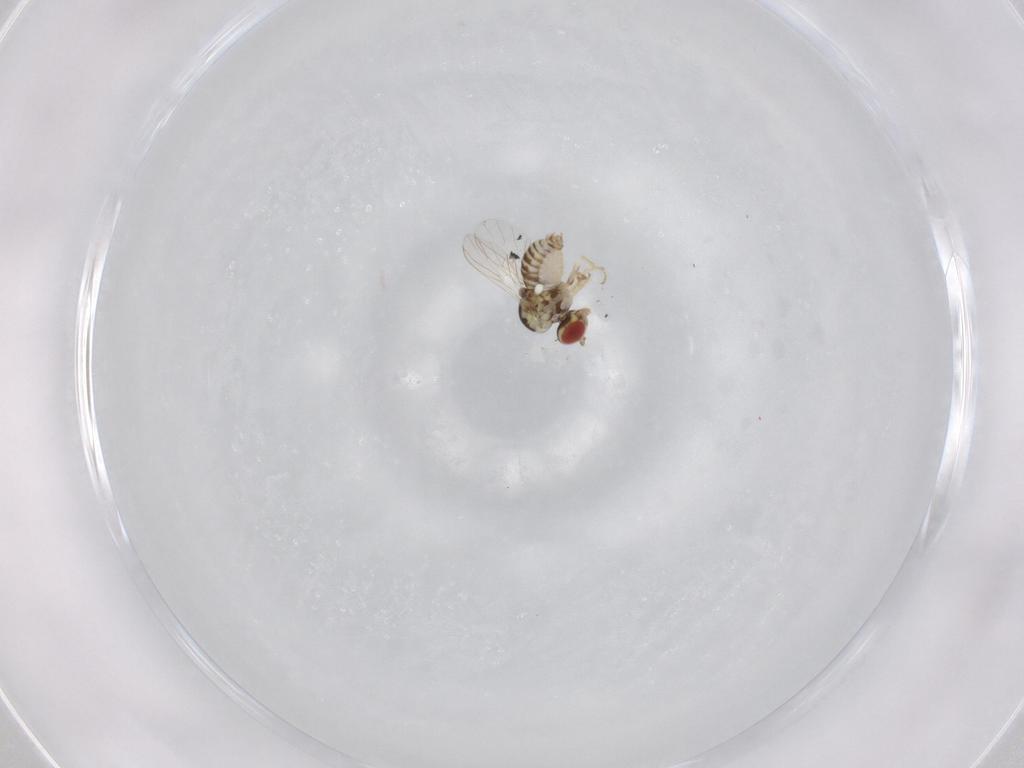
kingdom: Animalia
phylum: Arthropoda
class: Insecta
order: Diptera
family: Bombyliidae
